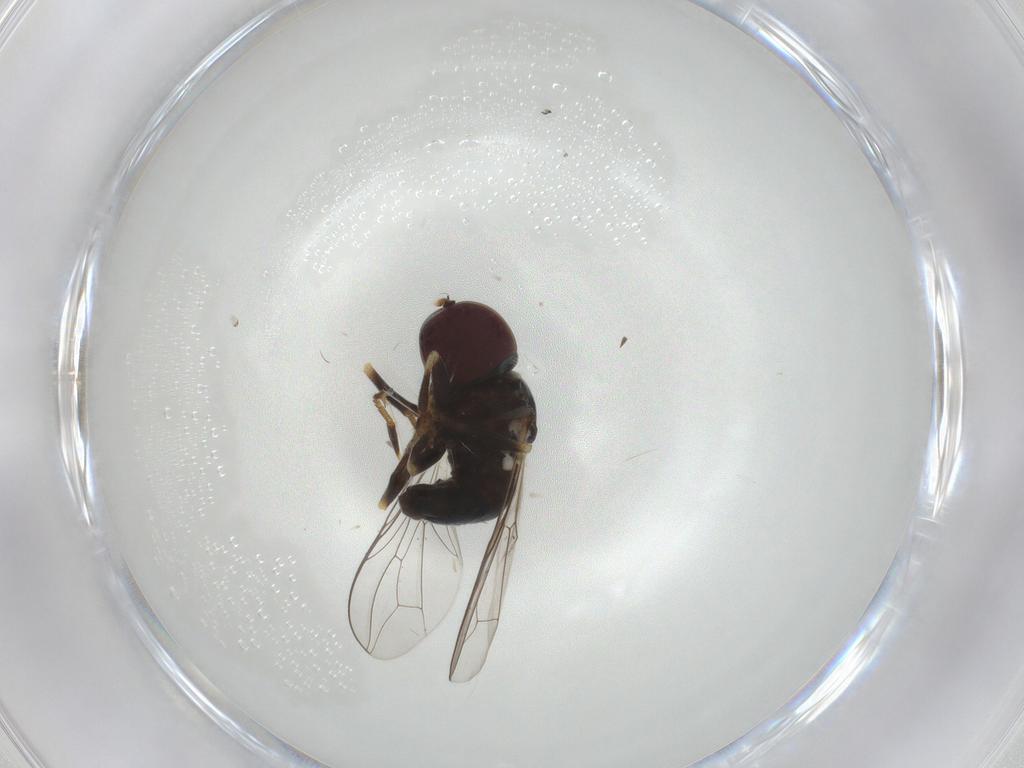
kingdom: Animalia
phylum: Arthropoda
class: Insecta
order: Diptera
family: Pipunculidae
